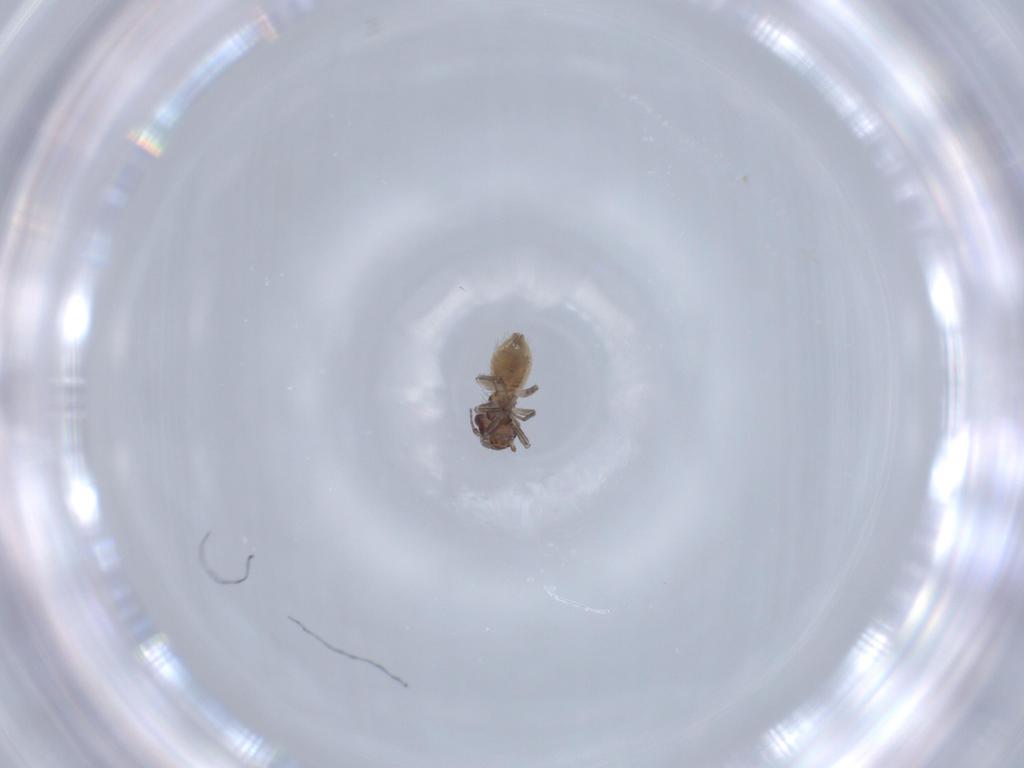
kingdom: Animalia
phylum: Arthropoda
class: Insecta
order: Psocodea
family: Lepidopsocidae
